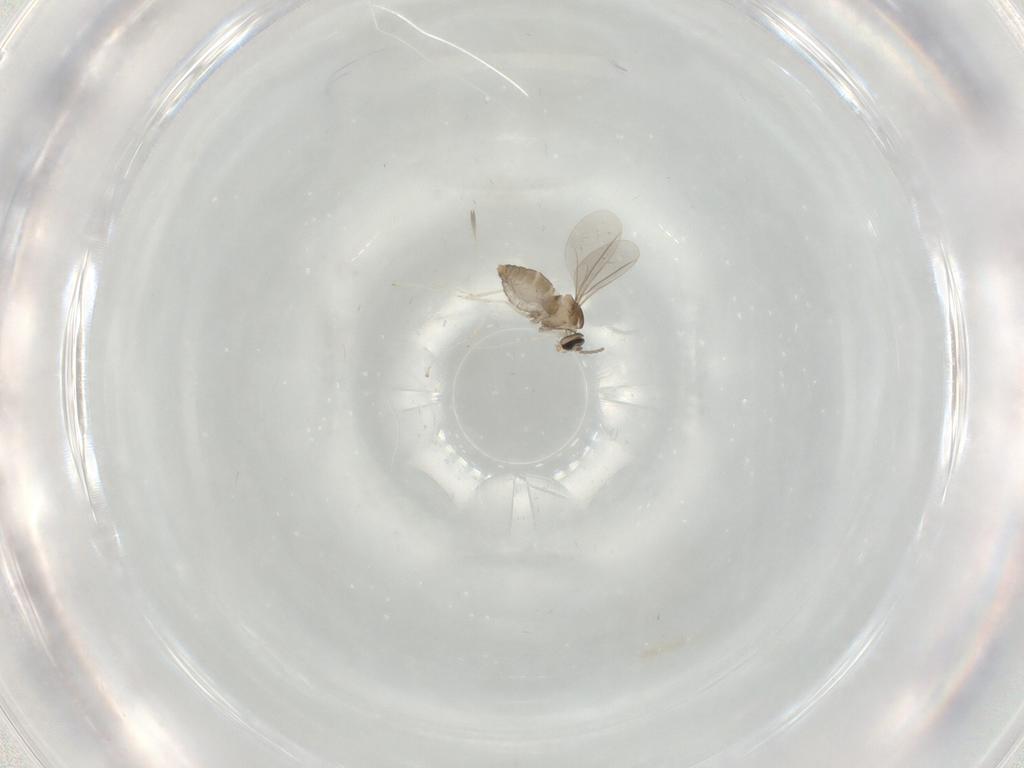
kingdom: Animalia
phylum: Arthropoda
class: Insecta
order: Diptera
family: Cecidomyiidae
